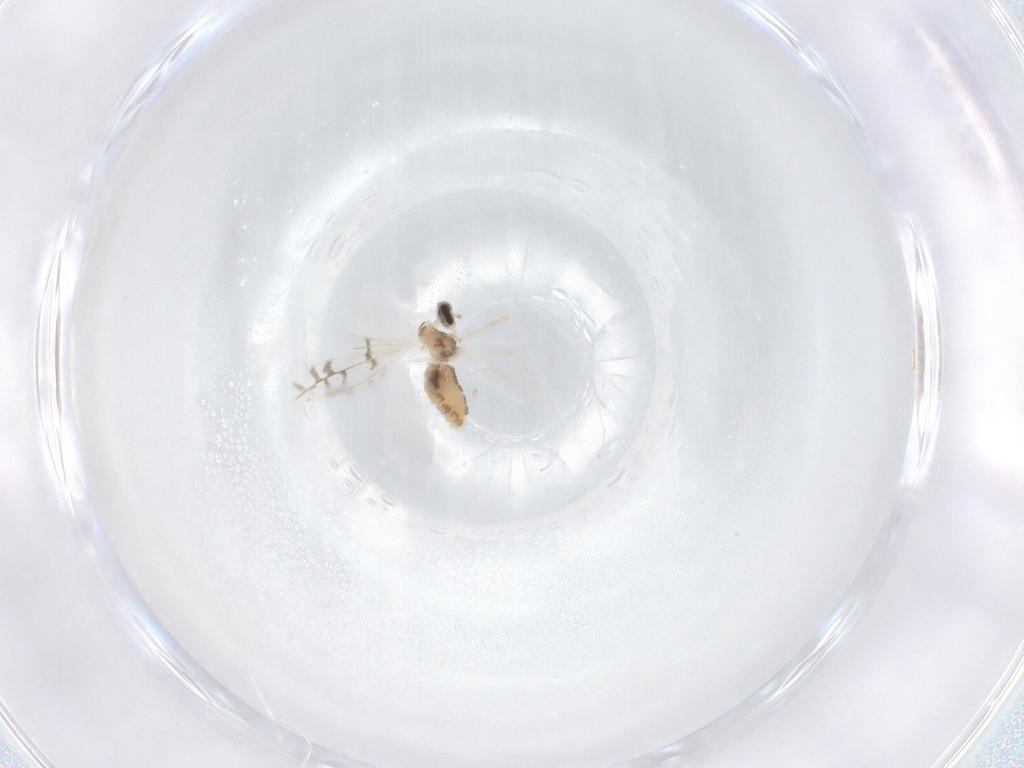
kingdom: Animalia
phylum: Arthropoda
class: Insecta
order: Diptera
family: Cecidomyiidae
